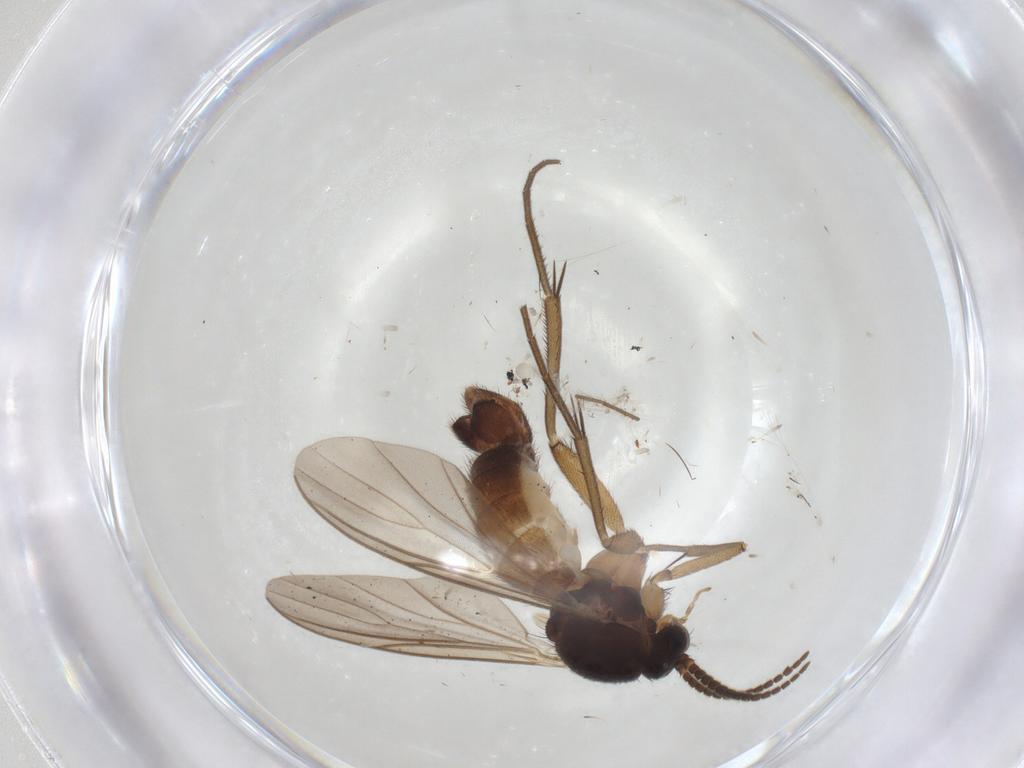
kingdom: Animalia
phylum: Arthropoda
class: Insecta
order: Diptera
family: Mycetophilidae
